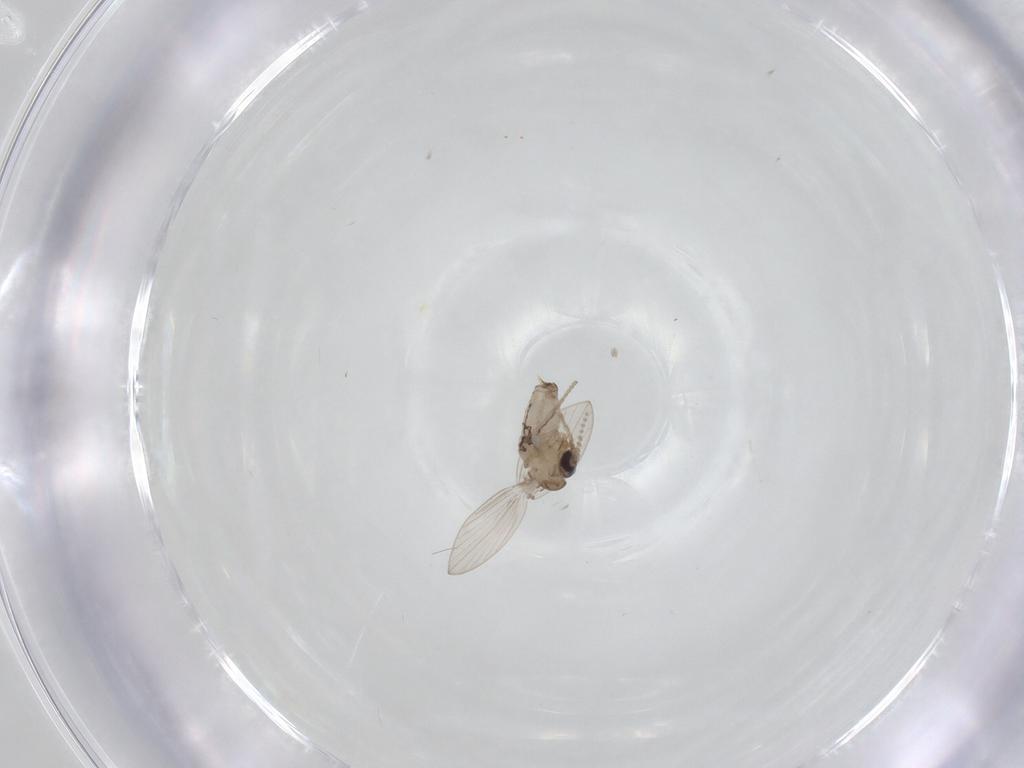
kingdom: Animalia
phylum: Arthropoda
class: Insecta
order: Diptera
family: Psychodidae
